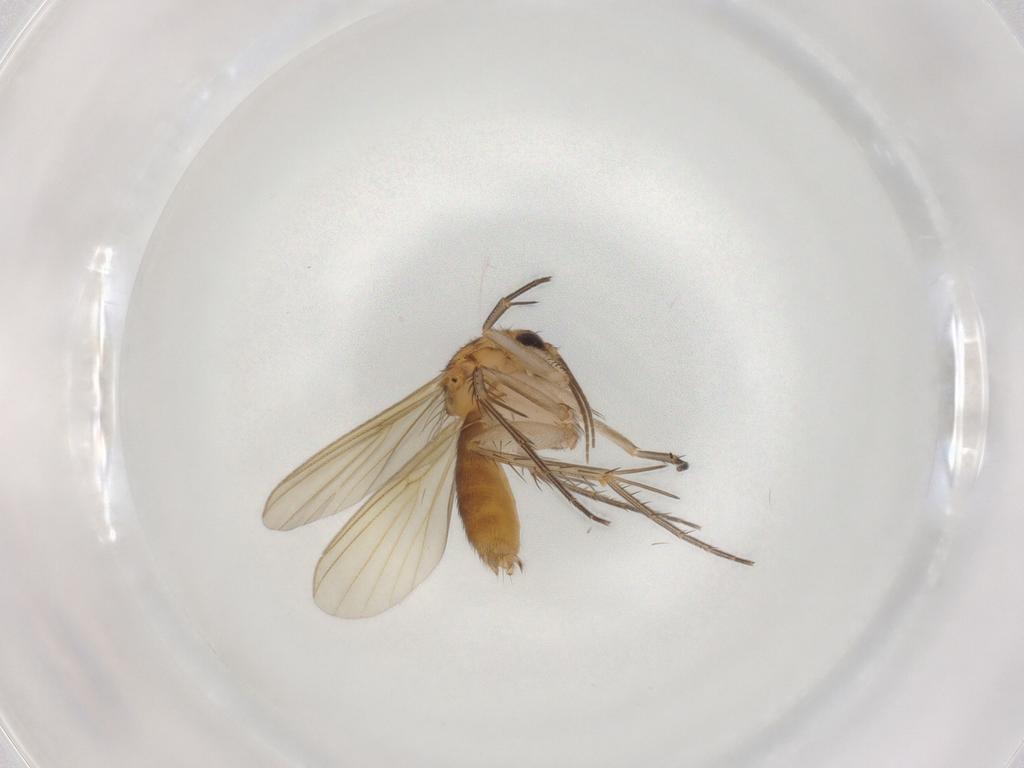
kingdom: Animalia
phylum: Arthropoda
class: Insecta
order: Diptera
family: Mycetophilidae
